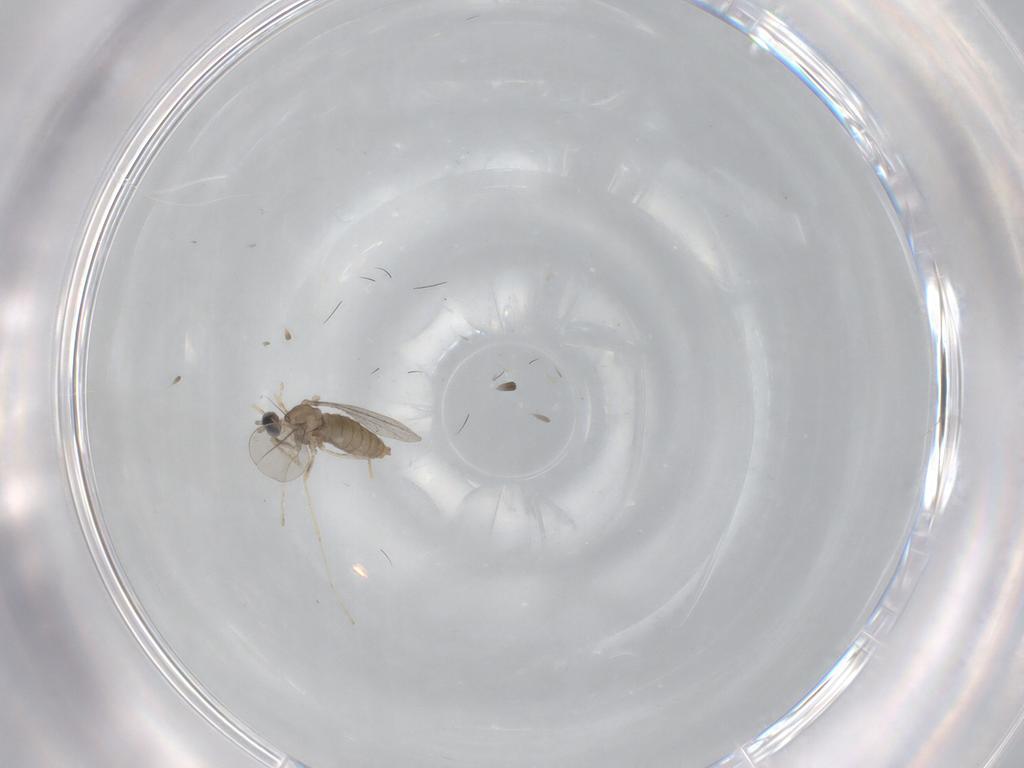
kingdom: Animalia
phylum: Arthropoda
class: Insecta
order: Diptera
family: Cecidomyiidae
